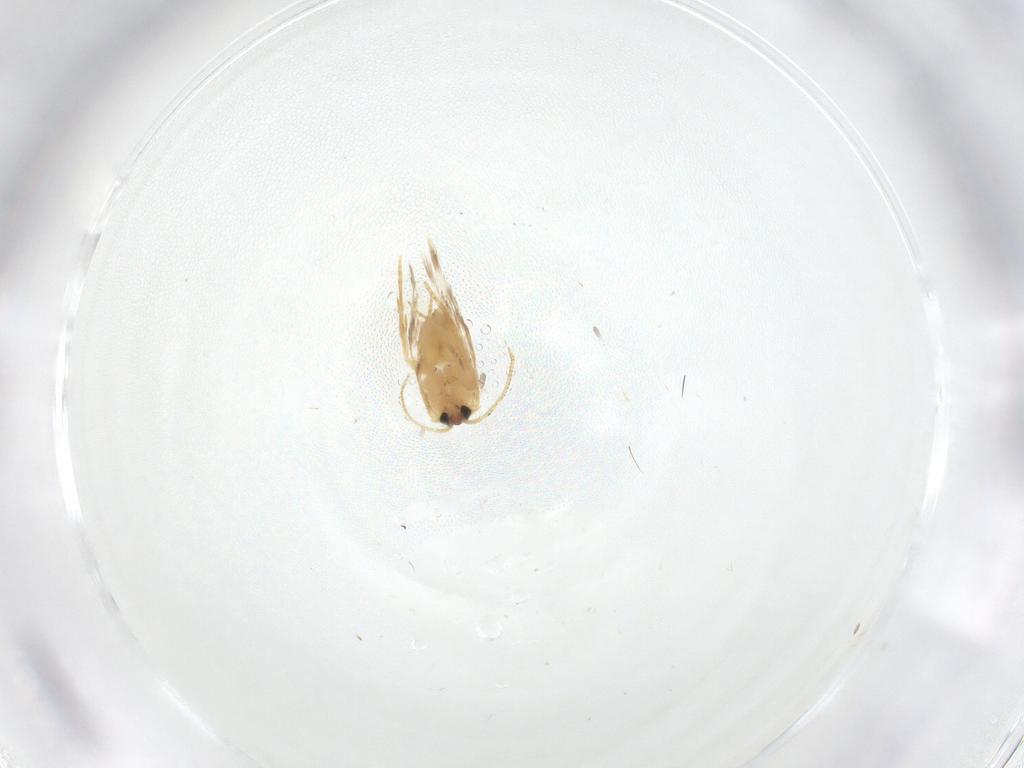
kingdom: Animalia
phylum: Arthropoda
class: Insecta
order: Lepidoptera
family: Nepticulidae
